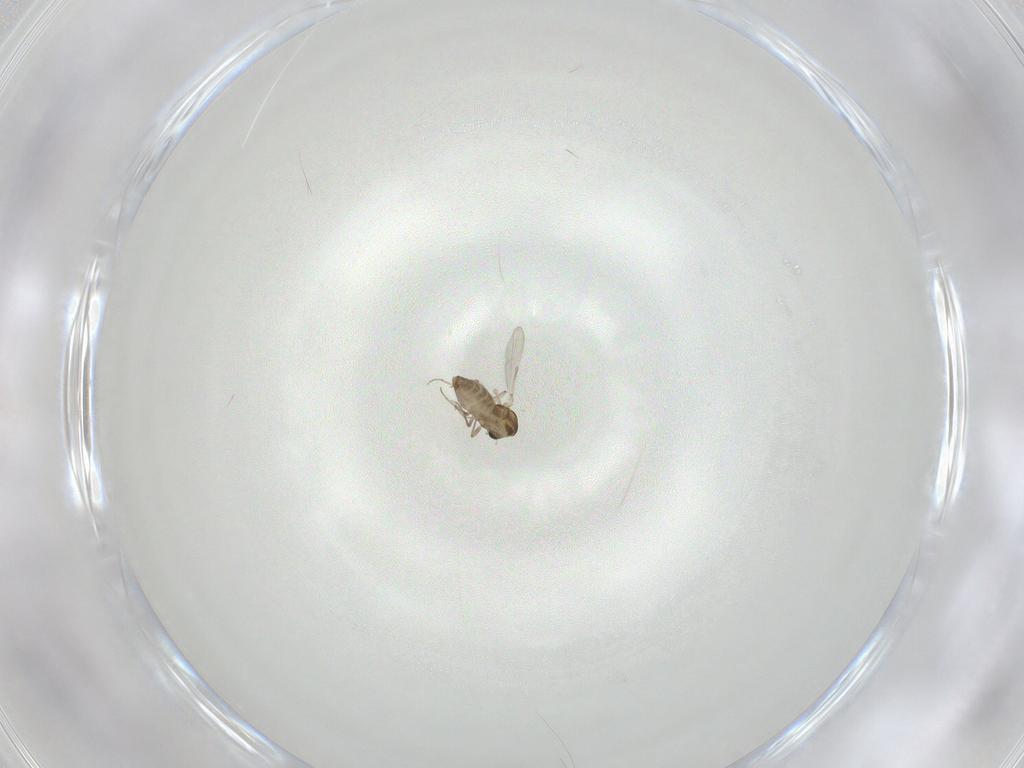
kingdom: Animalia
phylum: Arthropoda
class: Insecta
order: Diptera
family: Chironomidae
